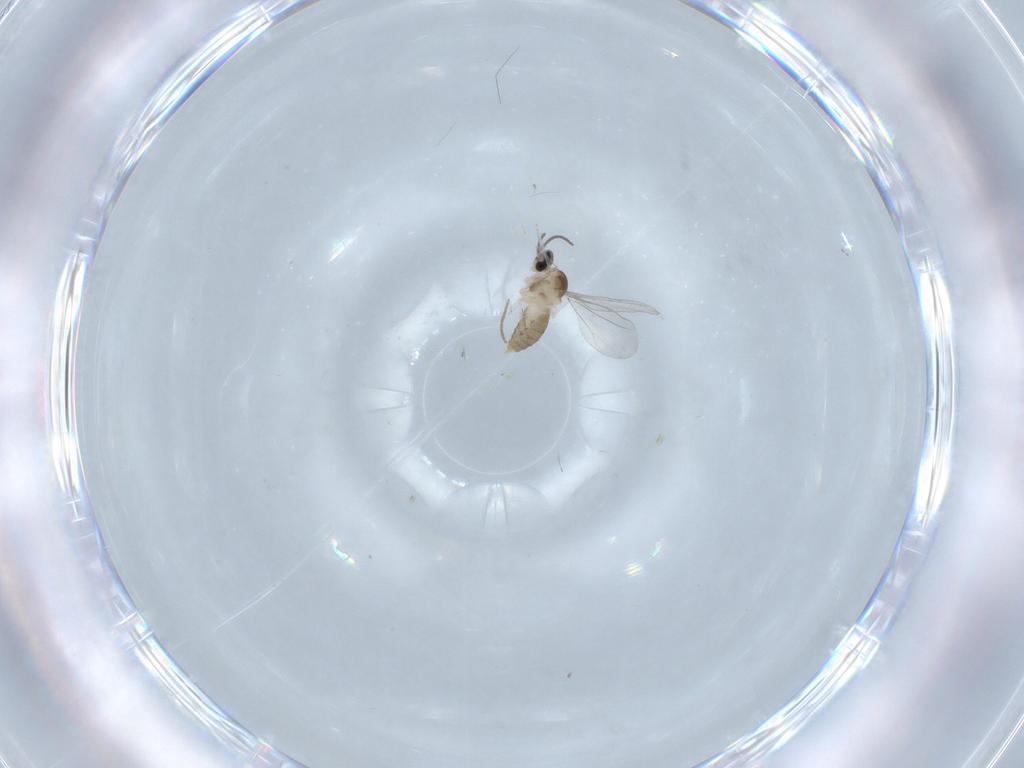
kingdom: Animalia
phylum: Arthropoda
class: Insecta
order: Diptera
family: Cecidomyiidae
